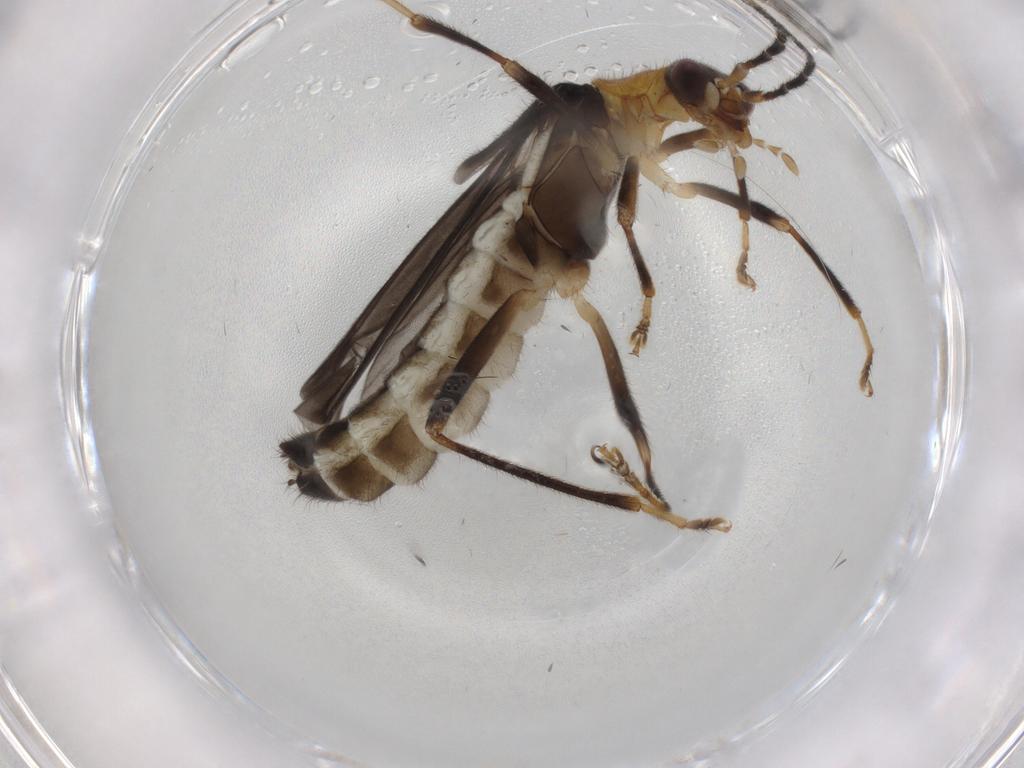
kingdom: Animalia
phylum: Arthropoda
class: Insecta
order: Coleoptera
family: Cantharidae
